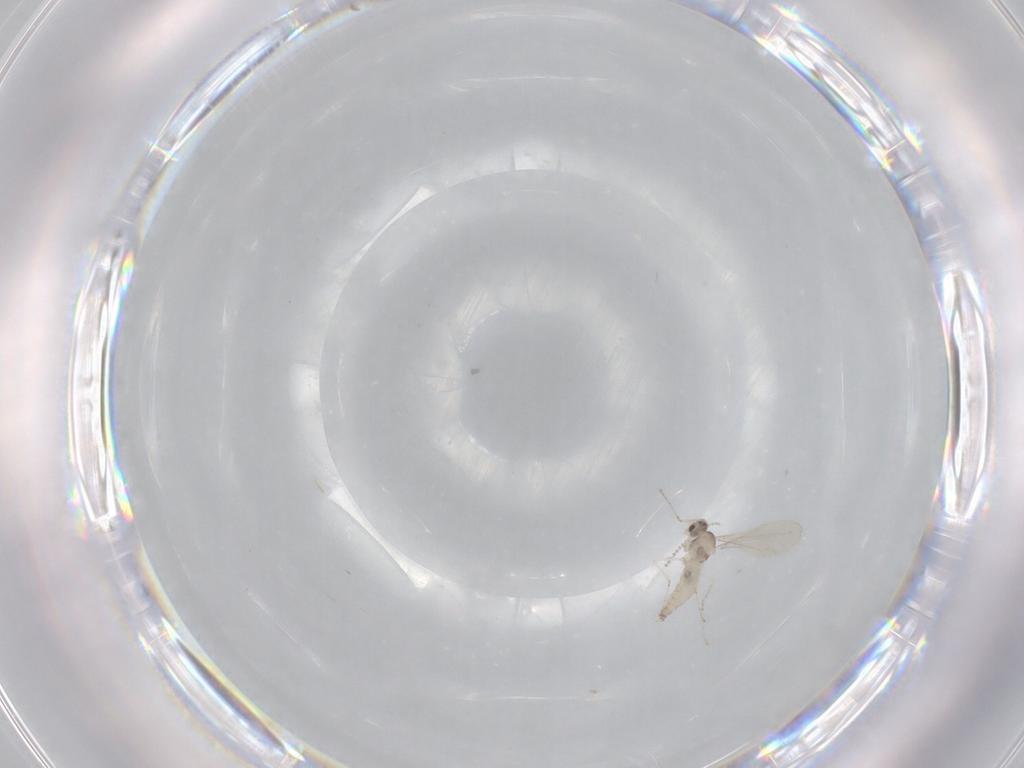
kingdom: Animalia
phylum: Arthropoda
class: Insecta
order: Diptera
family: Cecidomyiidae
